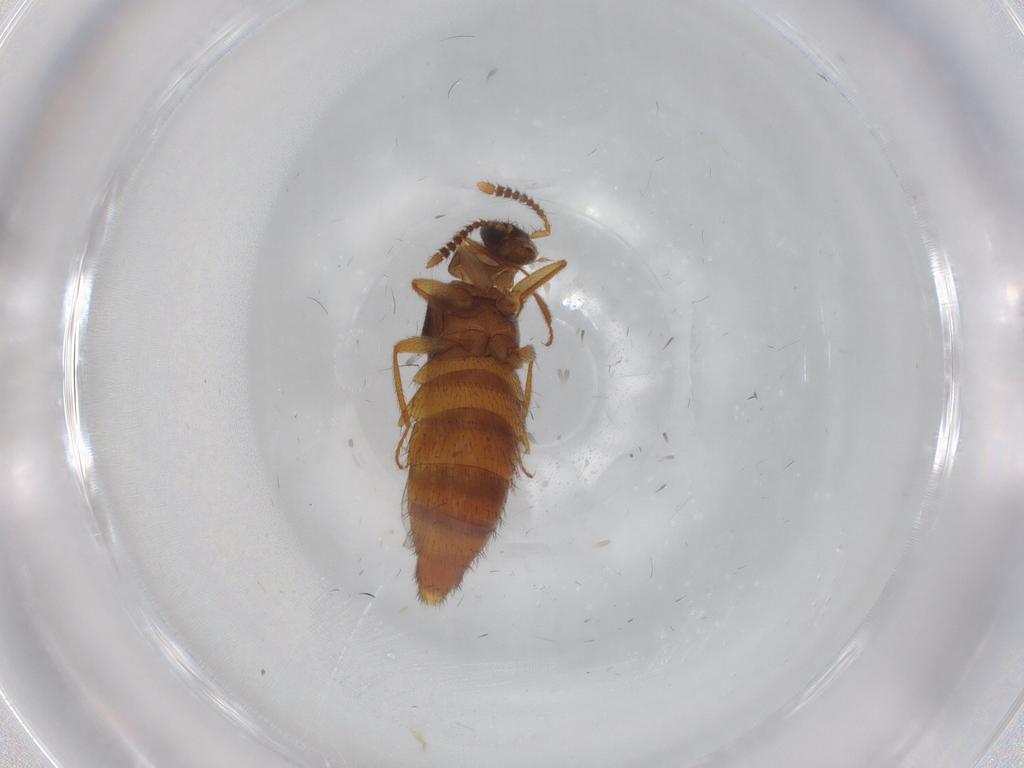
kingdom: Animalia
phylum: Arthropoda
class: Insecta
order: Coleoptera
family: Staphylinidae
